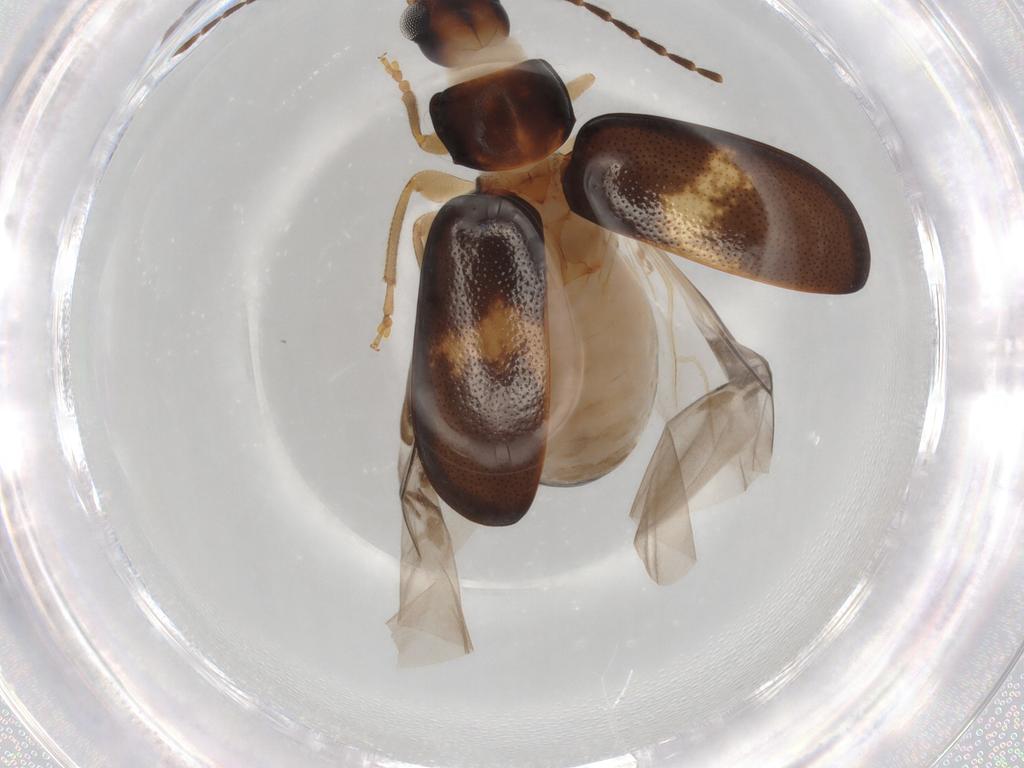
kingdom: Animalia
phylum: Arthropoda
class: Insecta
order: Coleoptera
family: Chrysomelidae
